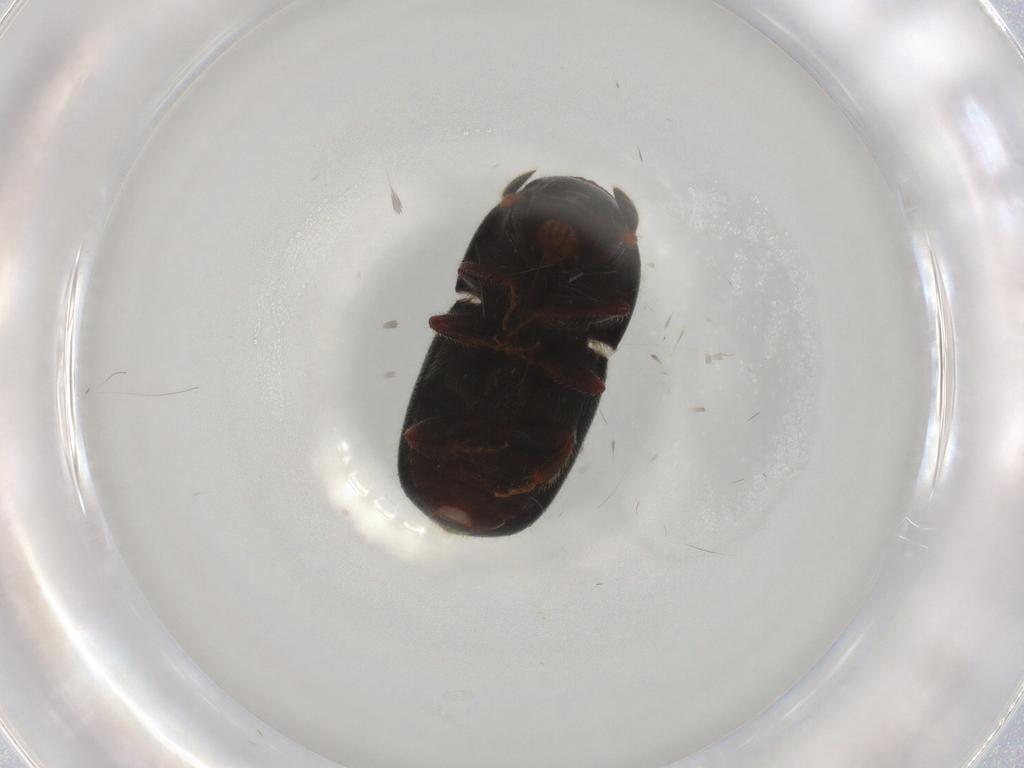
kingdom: Animalia
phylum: Arthropoda
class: Insecta
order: Coleoptera
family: Curculionidae
